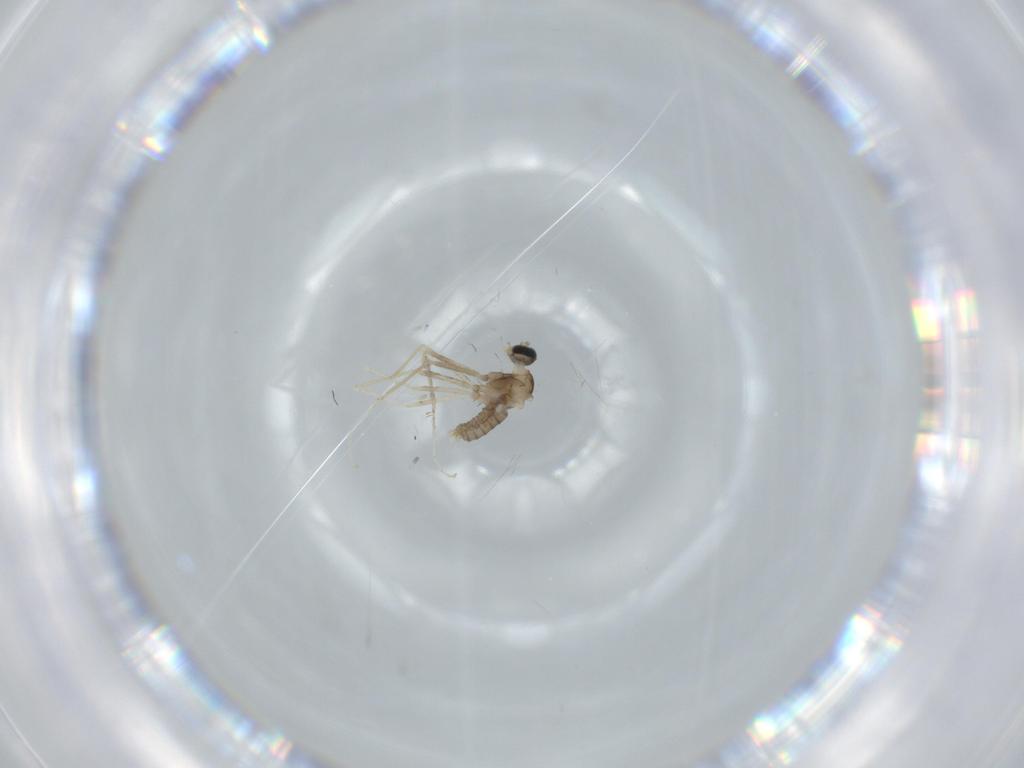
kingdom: Animalia
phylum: Arthropoda
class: Insecta
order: Diptera
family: Cecidomyiidae
